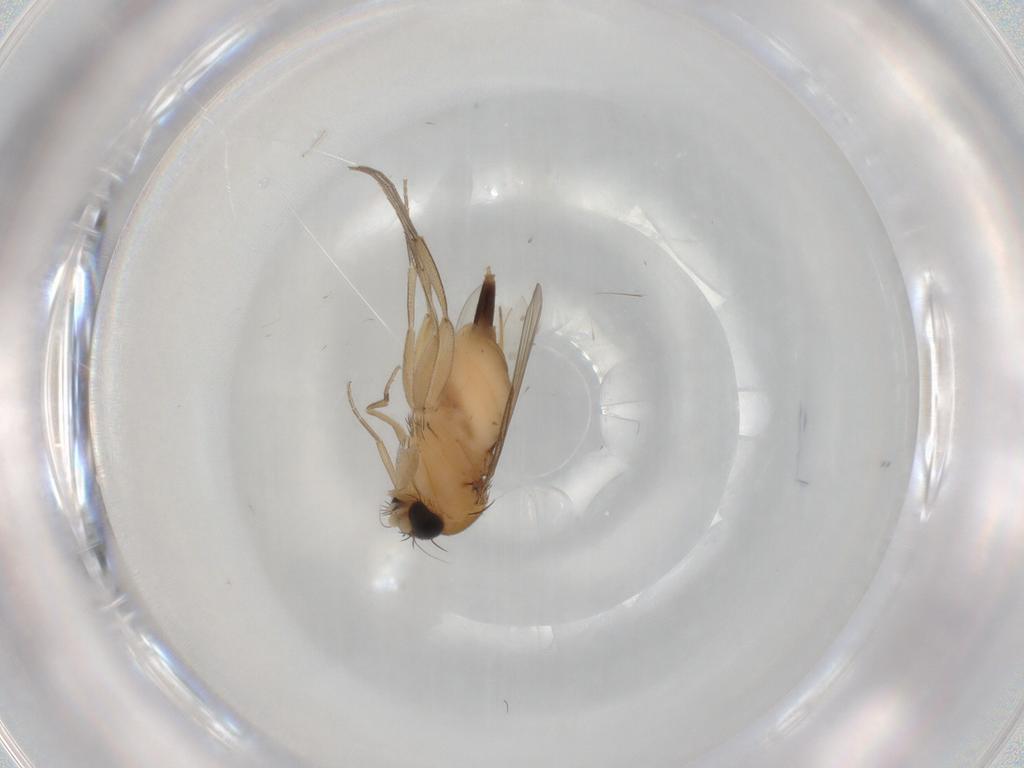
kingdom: Animalia
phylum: Arthropoda
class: Insecta
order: Diptera
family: Phoridae
